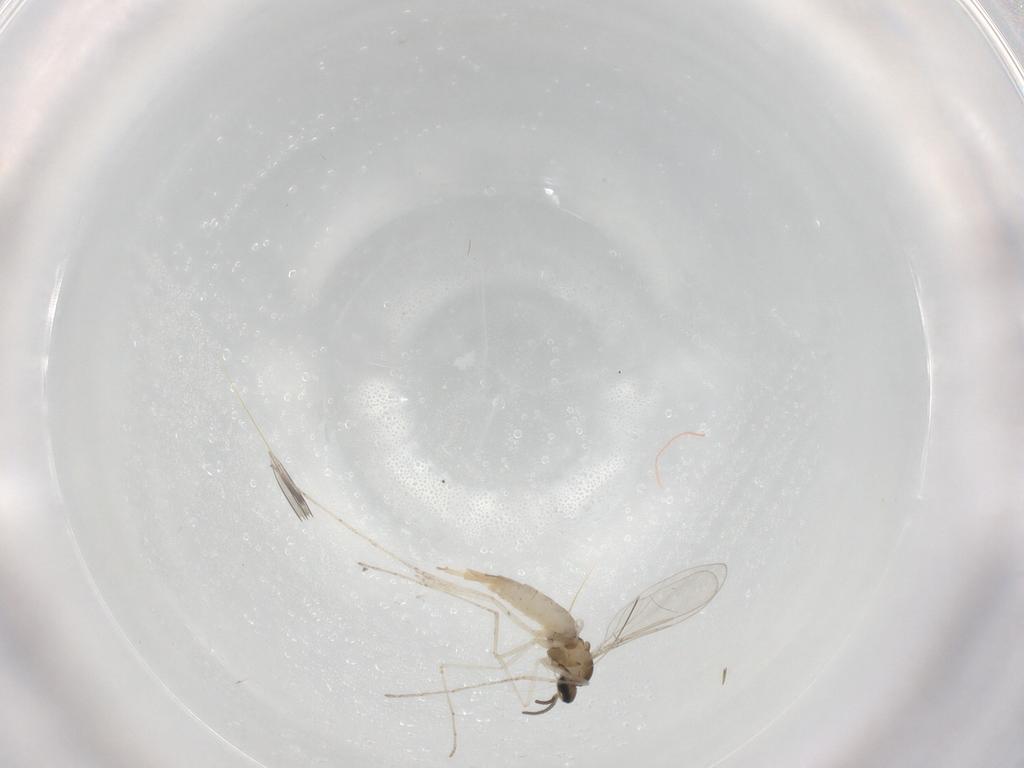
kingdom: Animalia
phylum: Arthropoda
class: Insecta
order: Diptera
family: Cecidomyiidae
